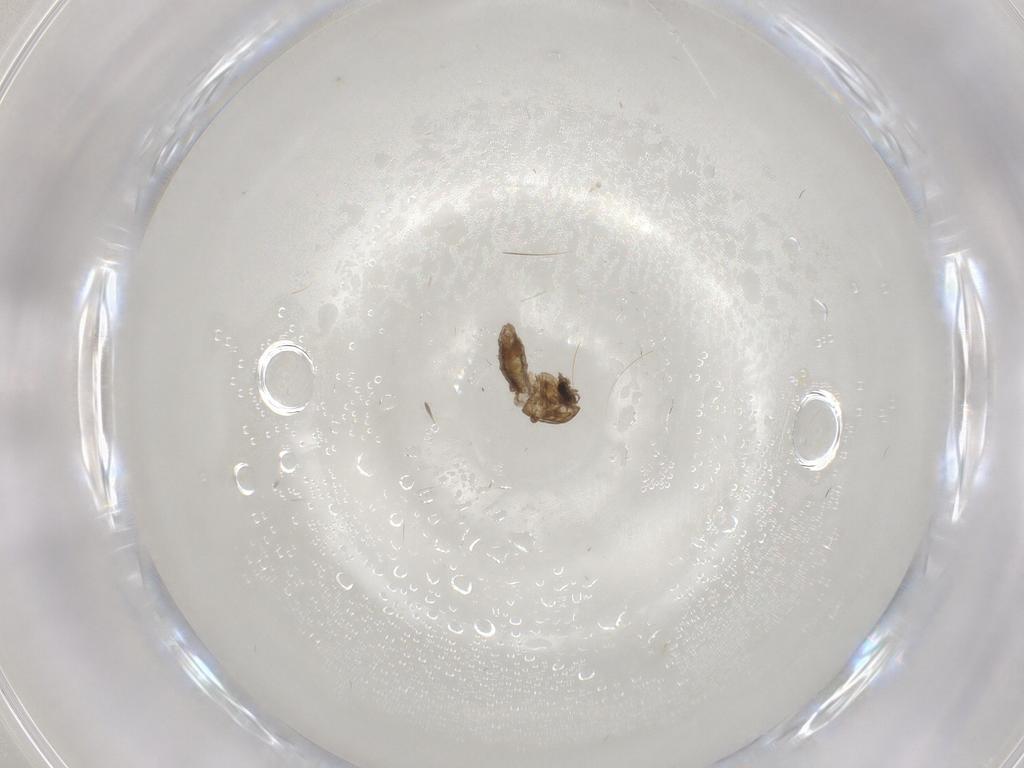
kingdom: Animalia
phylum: Arthropoda
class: Insecta
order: Diptera
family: Chironomidae
